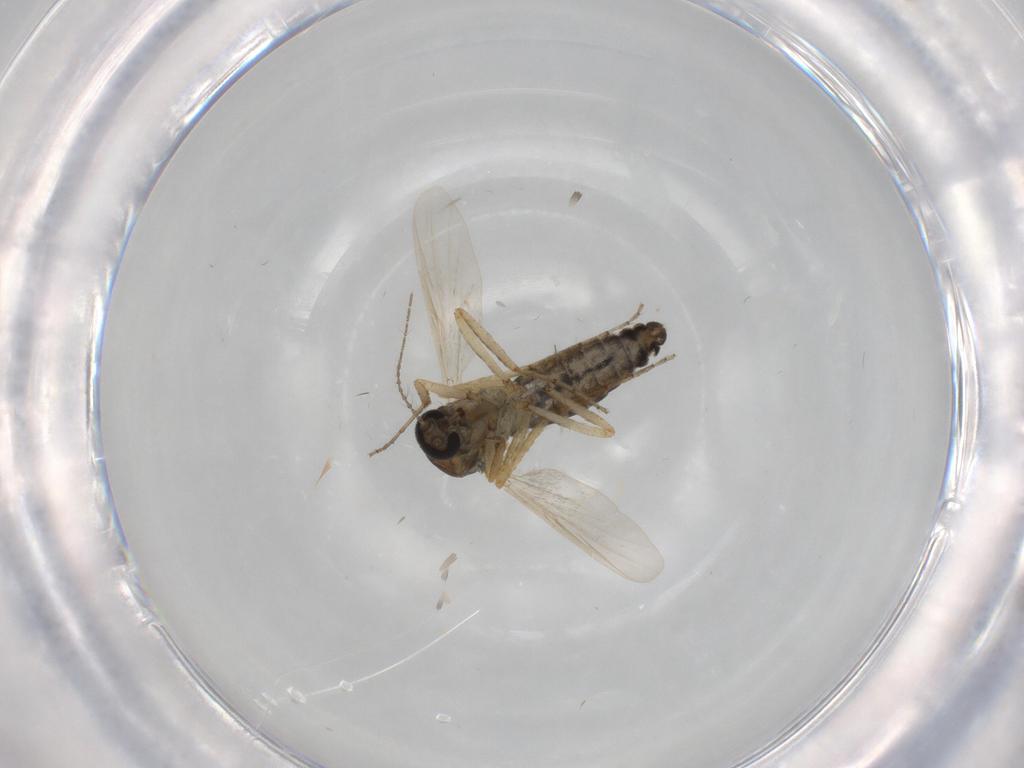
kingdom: Animalia
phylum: Arthropoda
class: Insecta
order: Diptera
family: Ceratopogonidae
